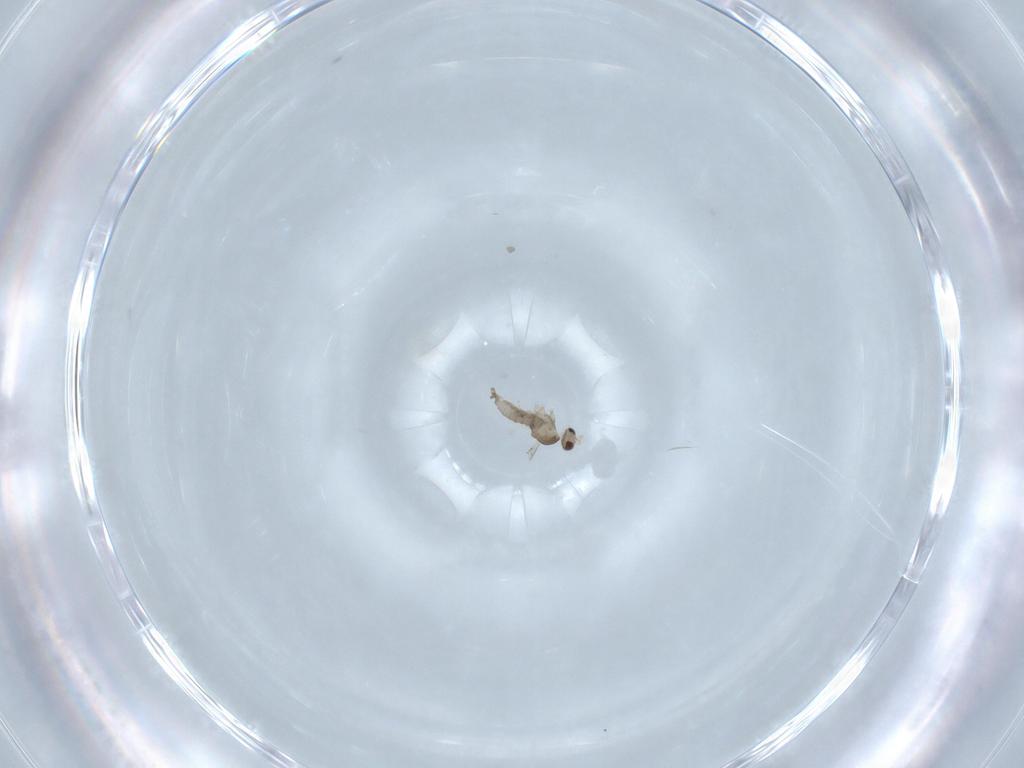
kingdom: Animalia
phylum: Arthropoda
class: Insecta
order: Diptera
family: Cecidomyiidae
